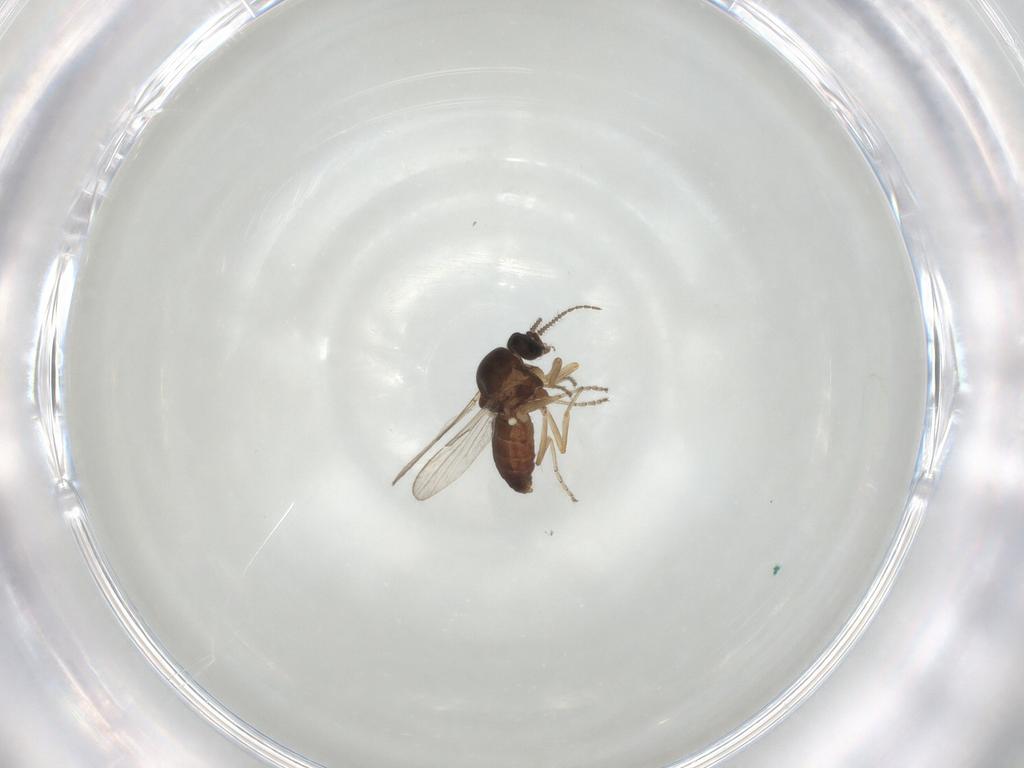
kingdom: Animalia
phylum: Arthropoda
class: Insecta
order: Diptera
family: Ceratopogonidae
